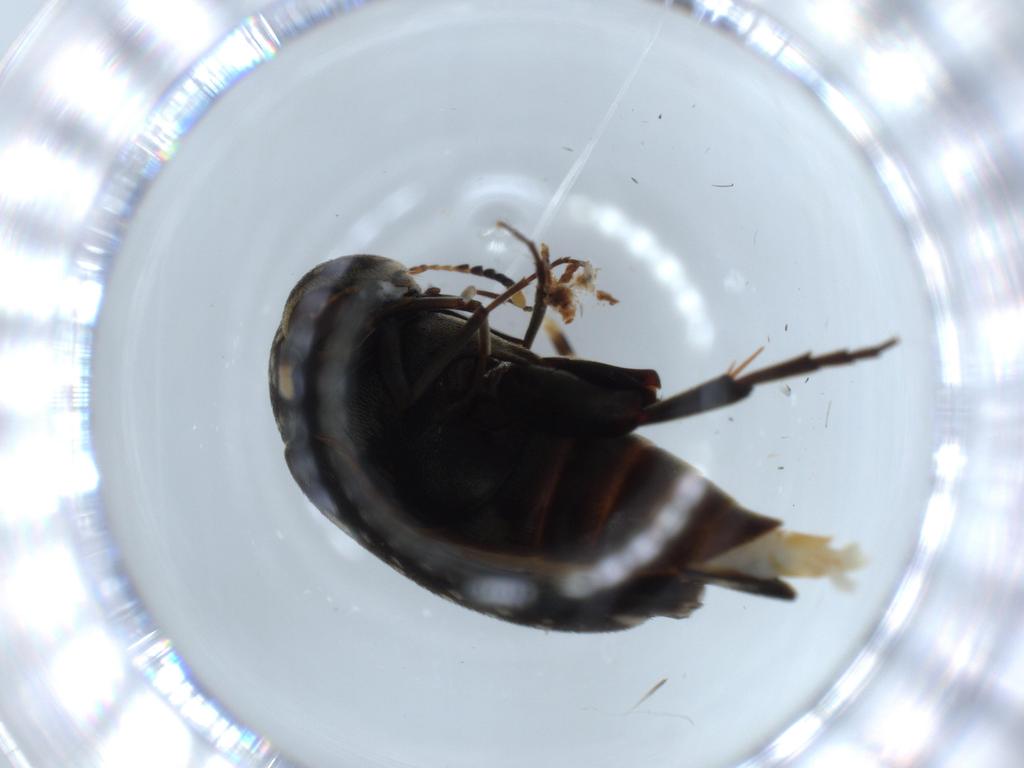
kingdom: Animalia
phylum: Arthropoda
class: Insecta
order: Coleoptera
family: Mordellidae
